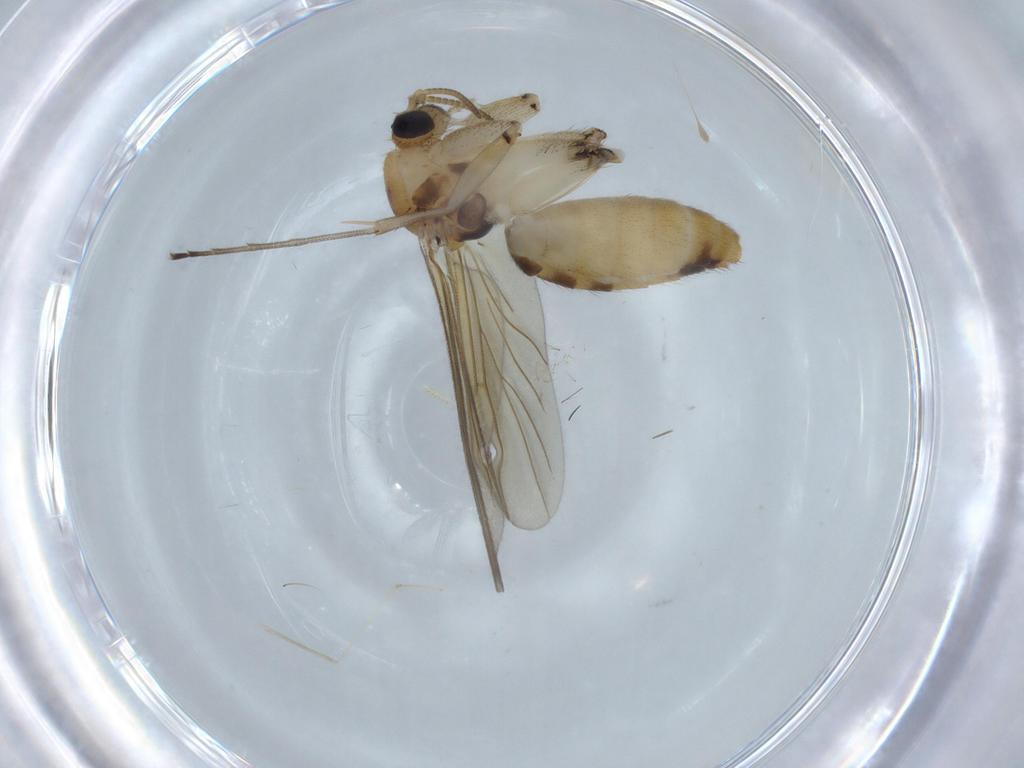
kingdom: Animalia
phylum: Arthropoda
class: Insecta
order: Diptera
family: Cecidomyiidae
